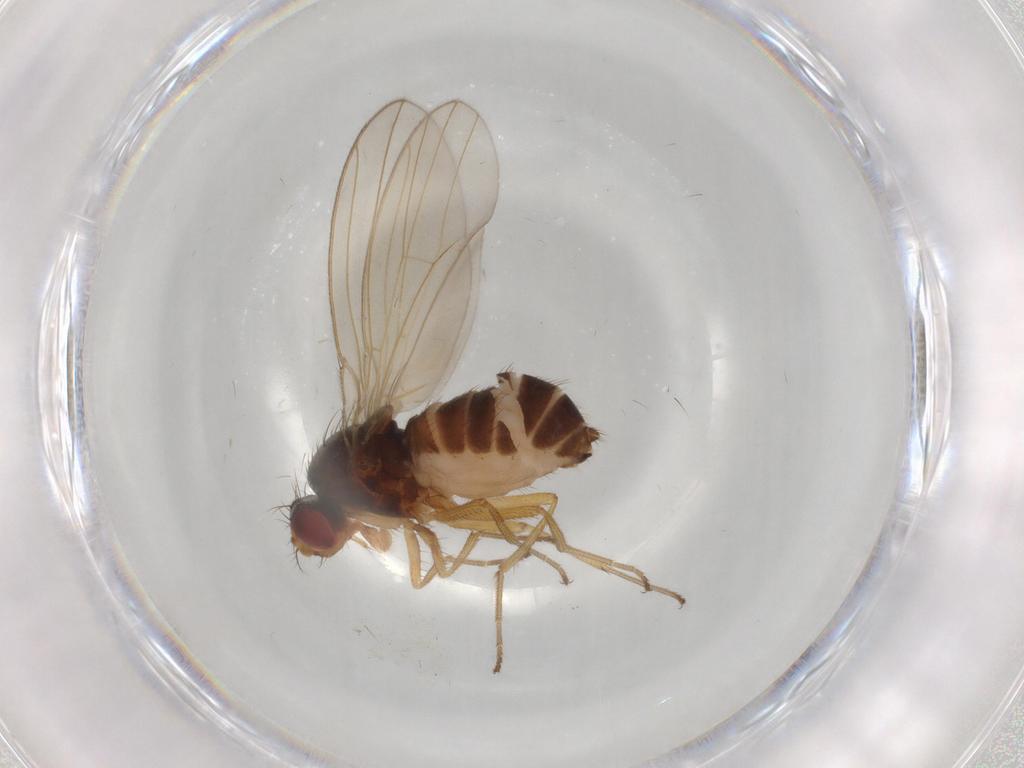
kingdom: Animalia
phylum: Arthropoda
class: Insecta
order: Diptera
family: Drosophilidae
